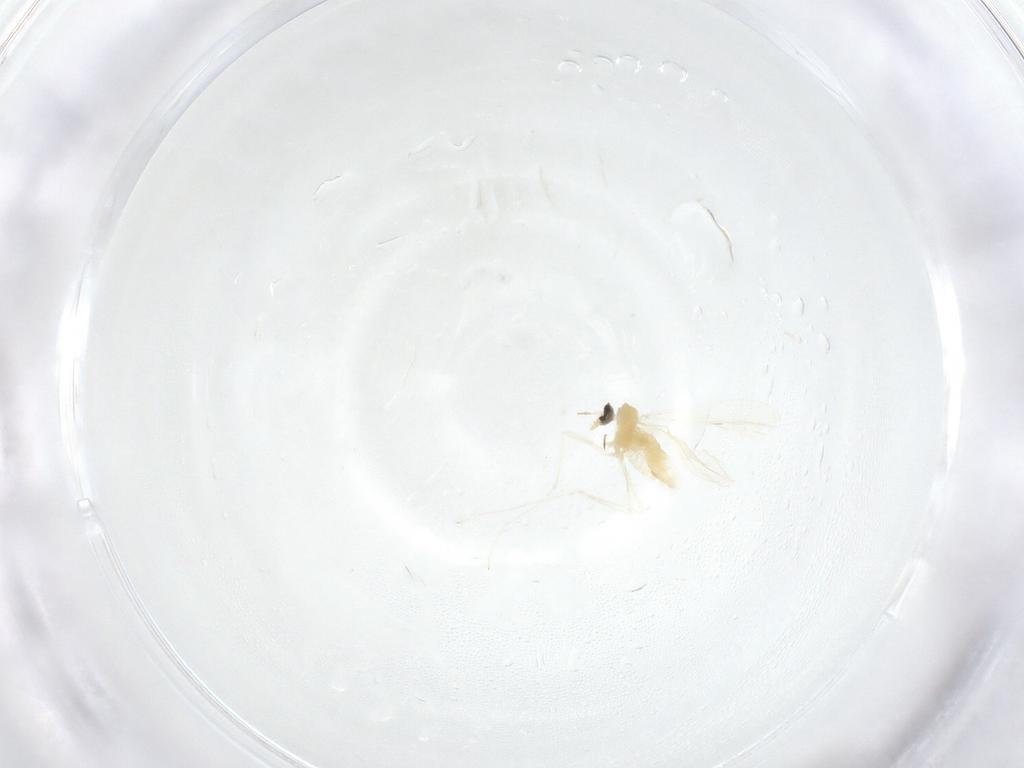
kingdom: Animalia
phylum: Arthropoda
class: Insecta
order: Diptera
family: Cecidomyiidae
